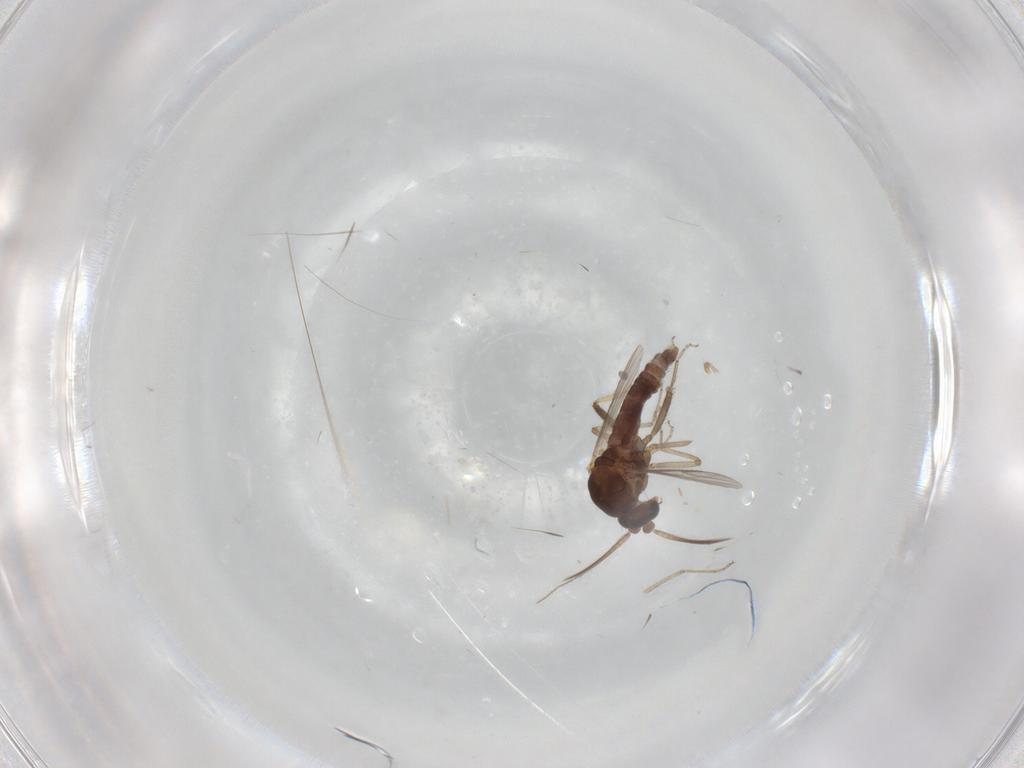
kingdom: Animalia
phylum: Arthropoda
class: Insecta
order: Diptera
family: Ceratopogonidae
